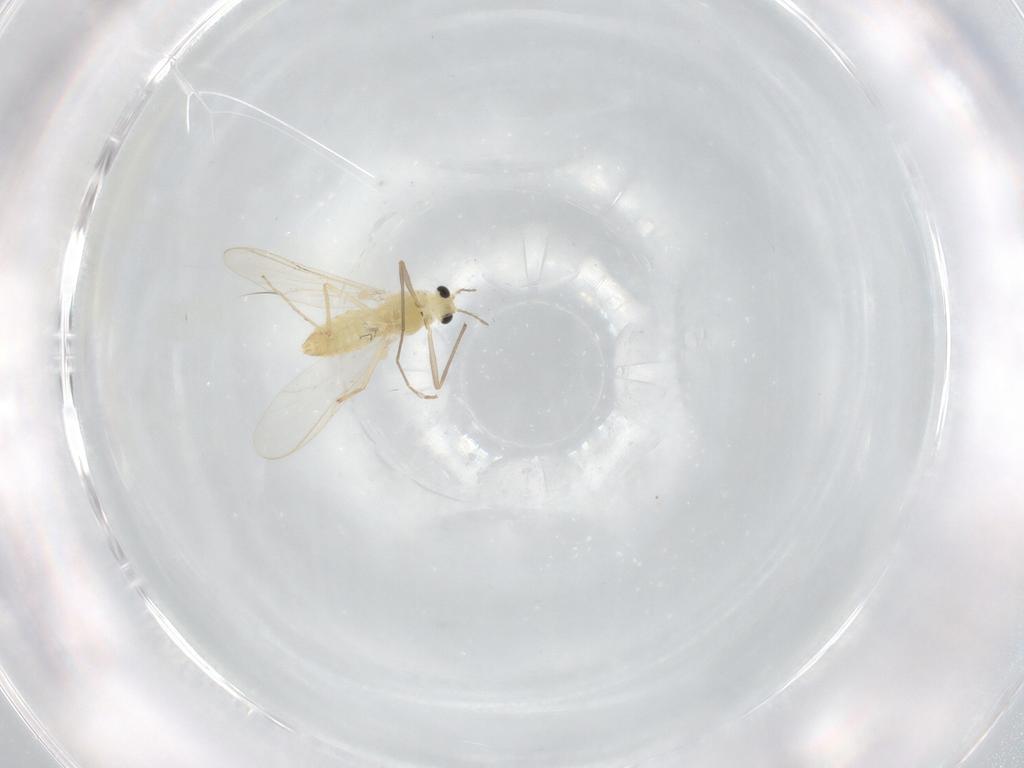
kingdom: Animalia
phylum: Arthropoda
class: Insecta
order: Diptera
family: Chironomidae
